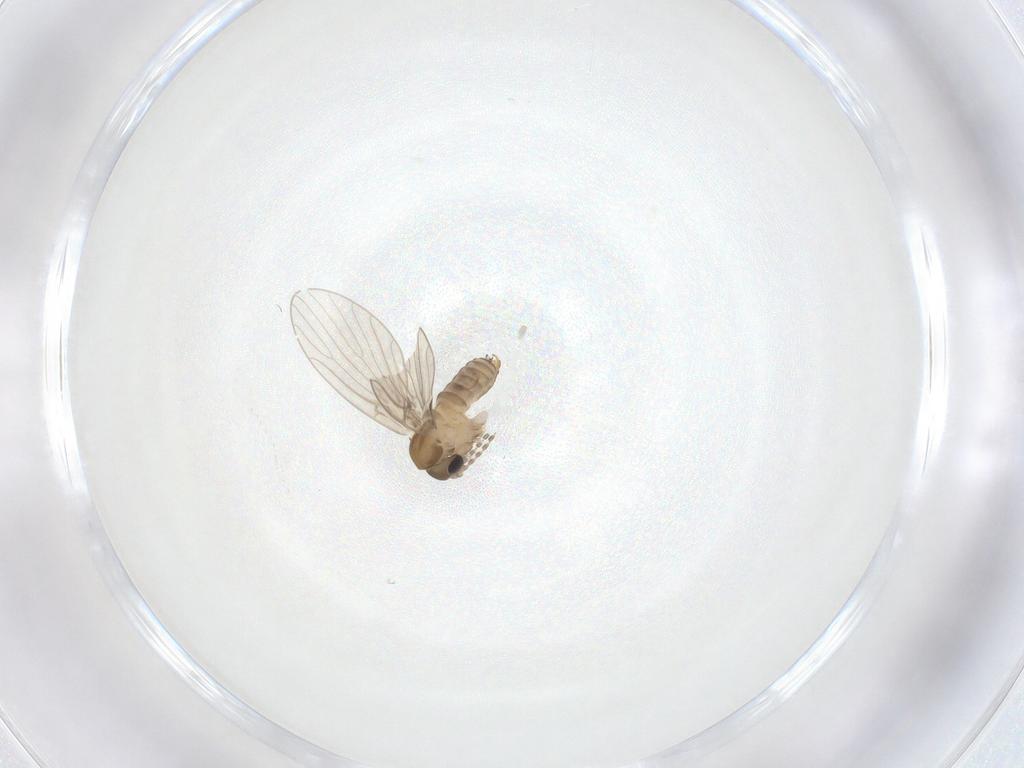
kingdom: Animalia
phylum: Arthropoda
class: Insecta
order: Diptera
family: Psychodidae
